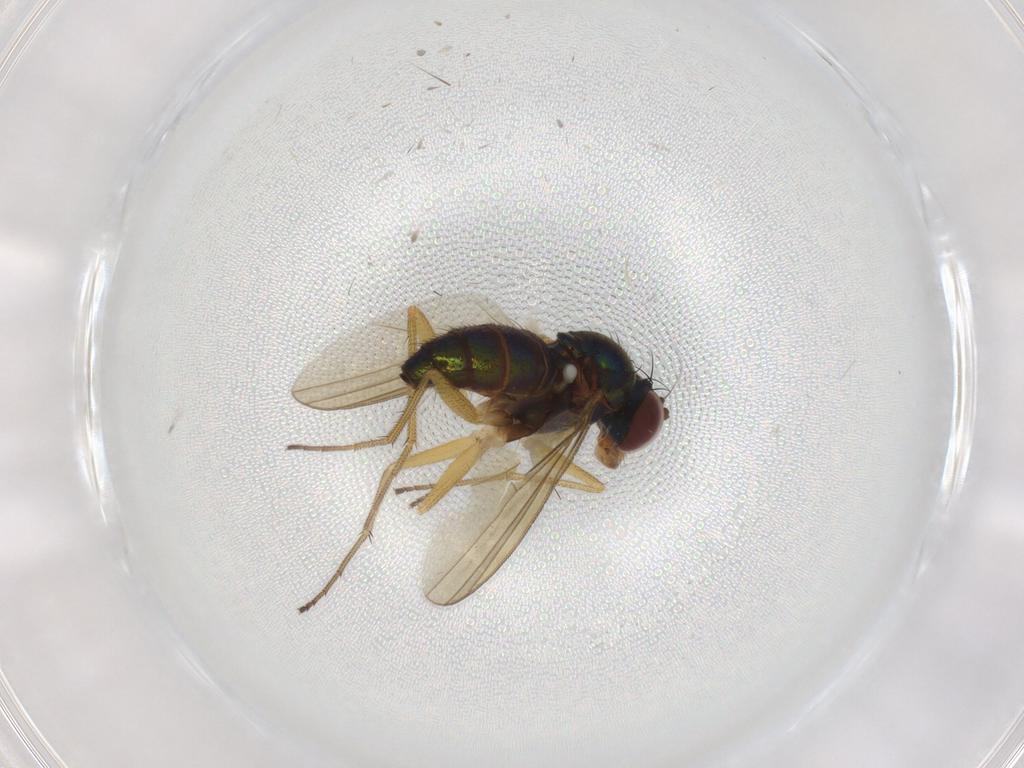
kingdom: Animalia
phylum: Arthropoda
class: Insecta
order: Diptera
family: Dolichopodidae
